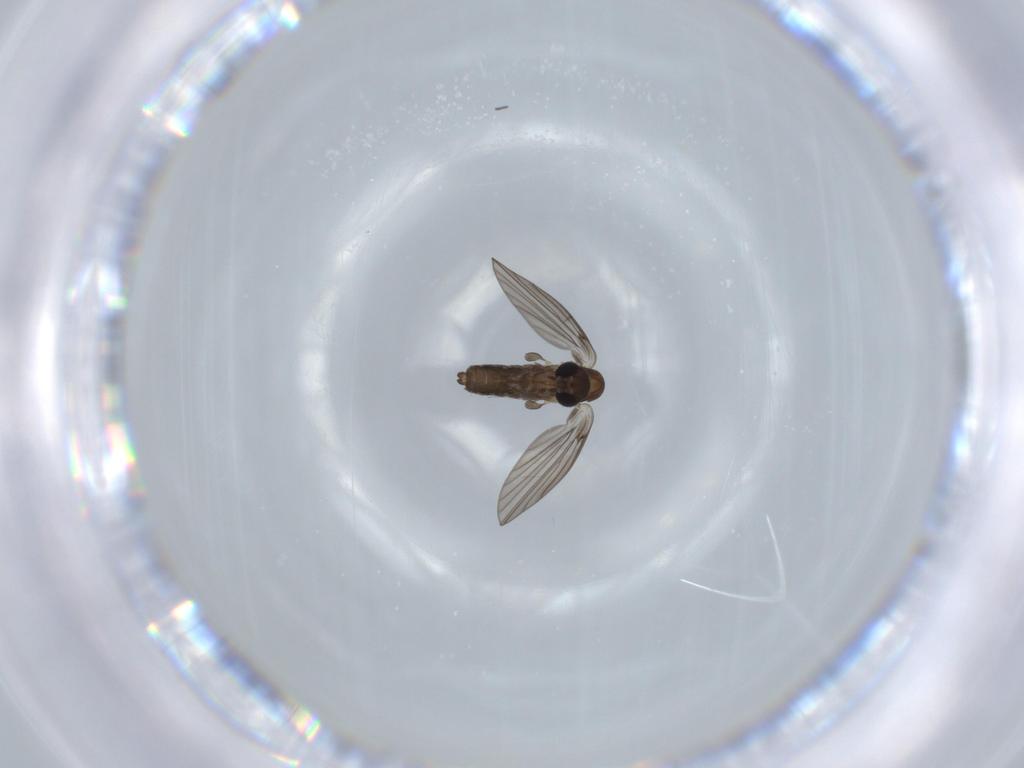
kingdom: Animalia
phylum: Arthropoda
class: Insecta
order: Diptera
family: Psychodidae
